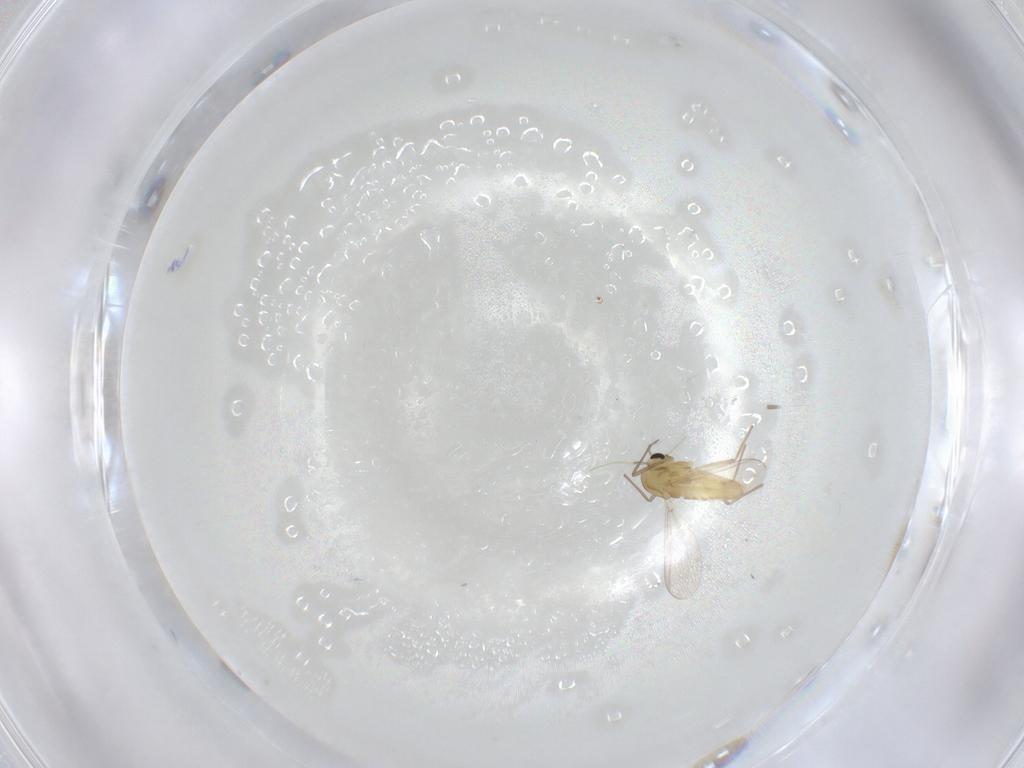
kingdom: Animalia
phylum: Arthropoda
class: Insecta
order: Diptera
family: Chironomidae
